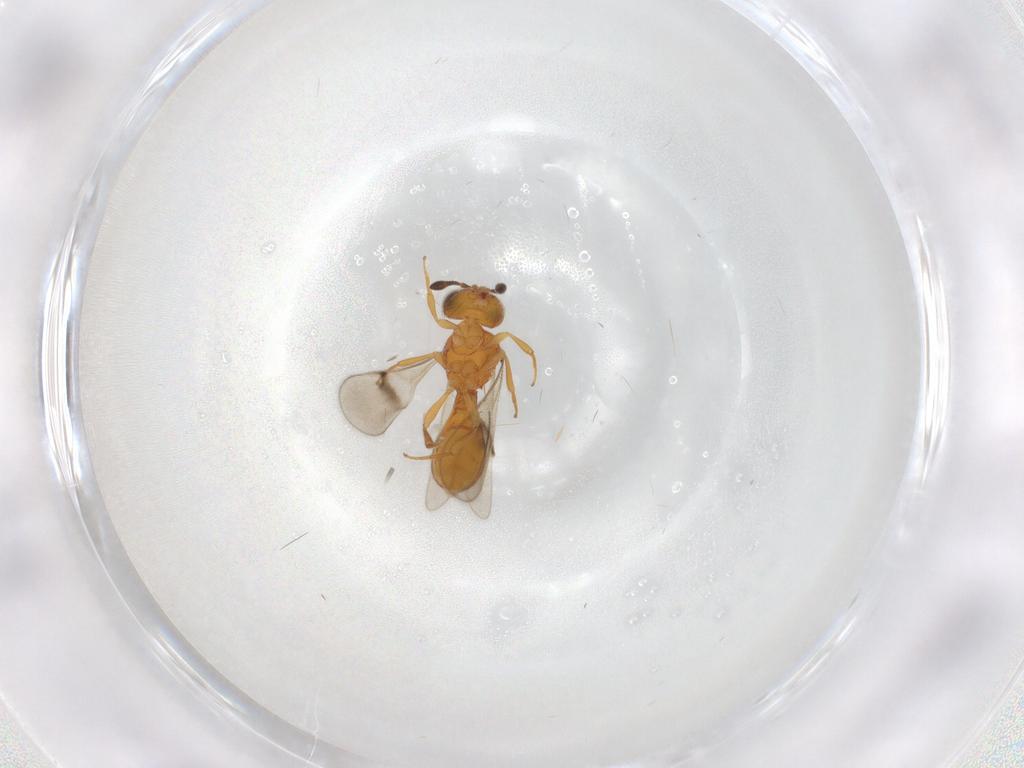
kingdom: Animalia
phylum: Arthropoda
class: Insecta
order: Hymenoptera
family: Scelionidae
